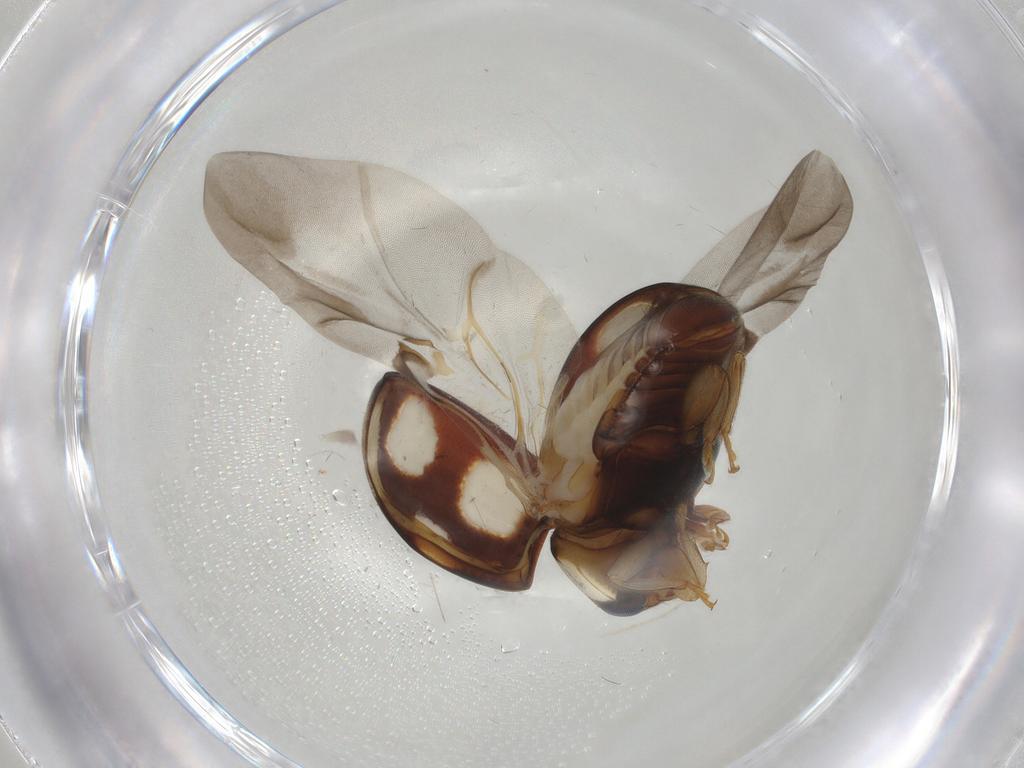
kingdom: Animalia
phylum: Arthropoda
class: Insecta
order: Coleoptera
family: Coccinellidae
